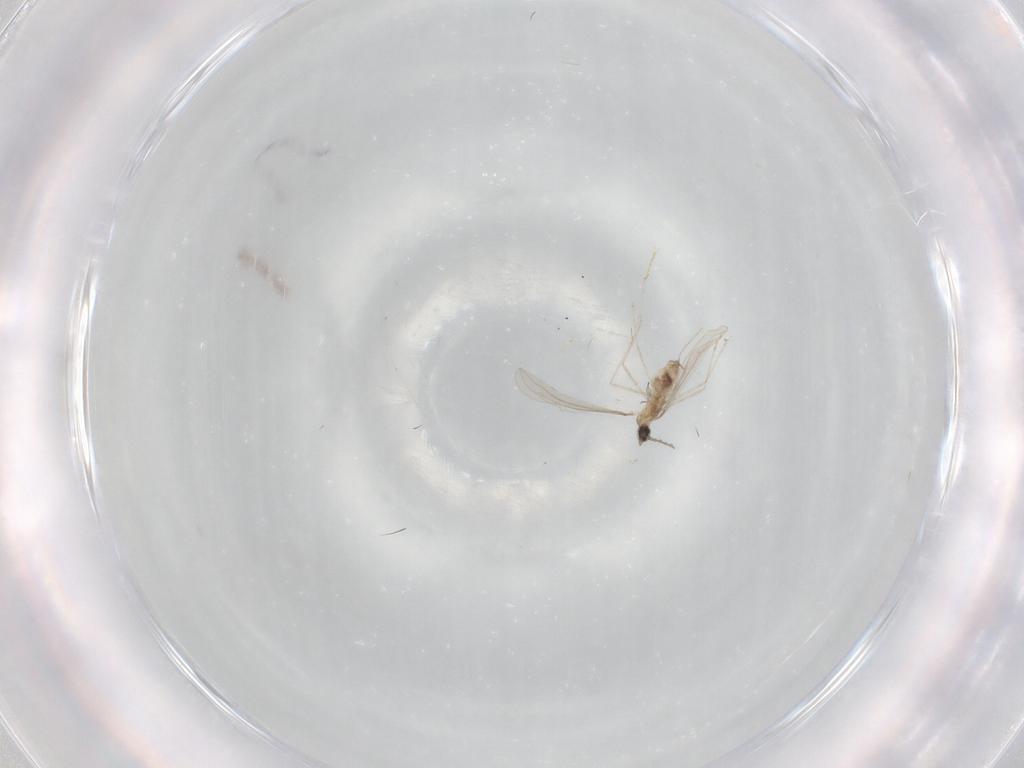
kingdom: Animalia
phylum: Arthropoda
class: Insecta
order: Diptera
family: Cecidomyiidae
